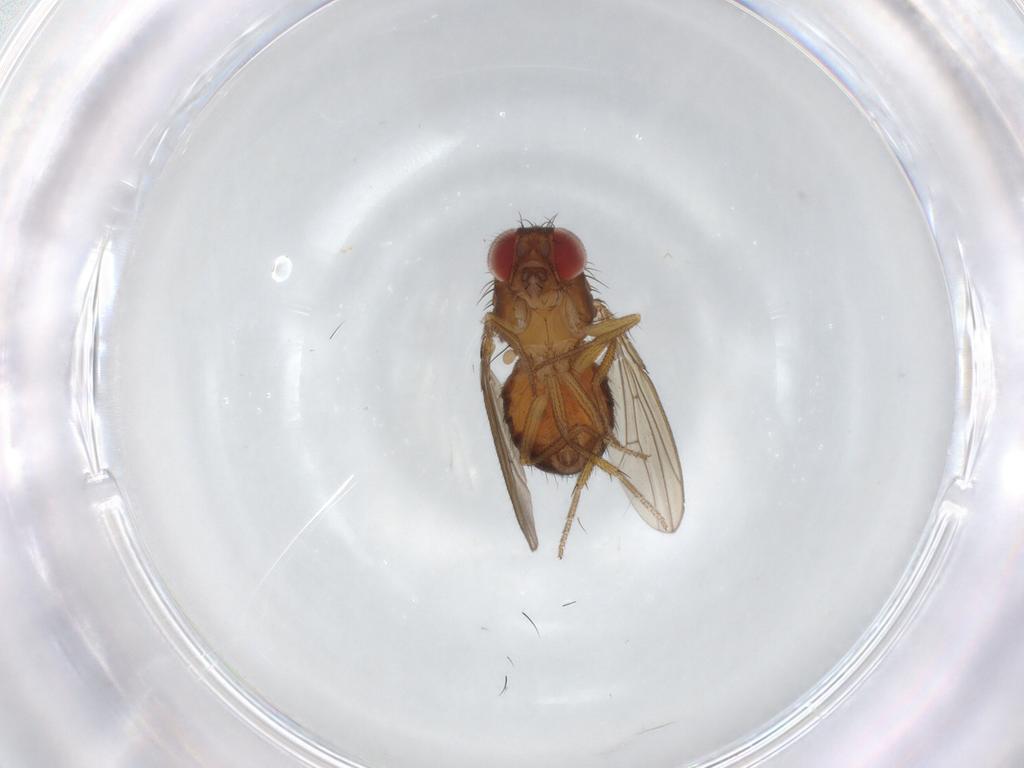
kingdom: Animalia
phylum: Arthropoda
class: Insecta
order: Diptera
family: Drosophilidae
